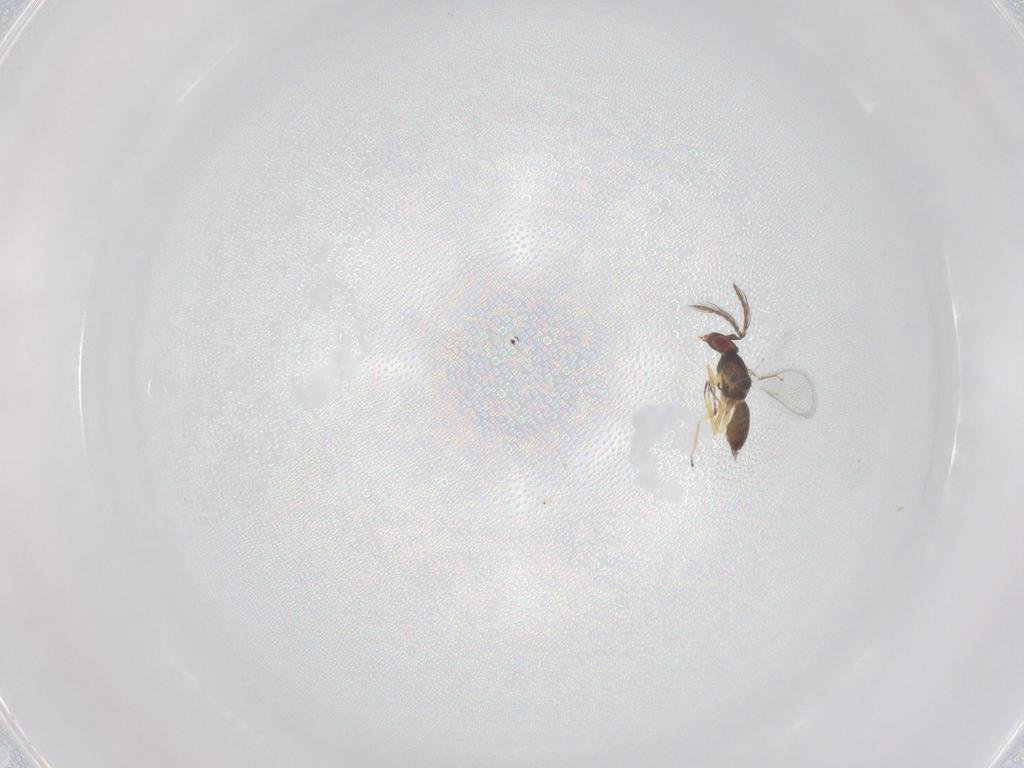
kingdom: Animalia
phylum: Arthropoda
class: Insecta
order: Hymenoptera
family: Eulophidae
